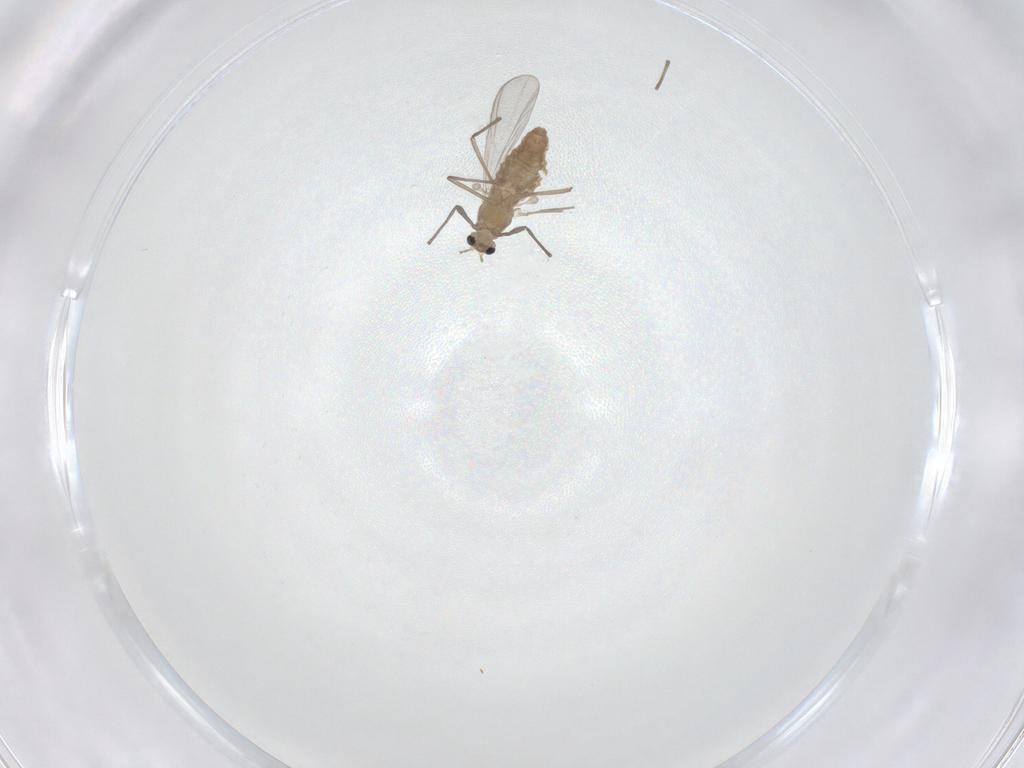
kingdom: Animalia
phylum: Arthropoda
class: Insecta
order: Diptera
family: Chironomidae
